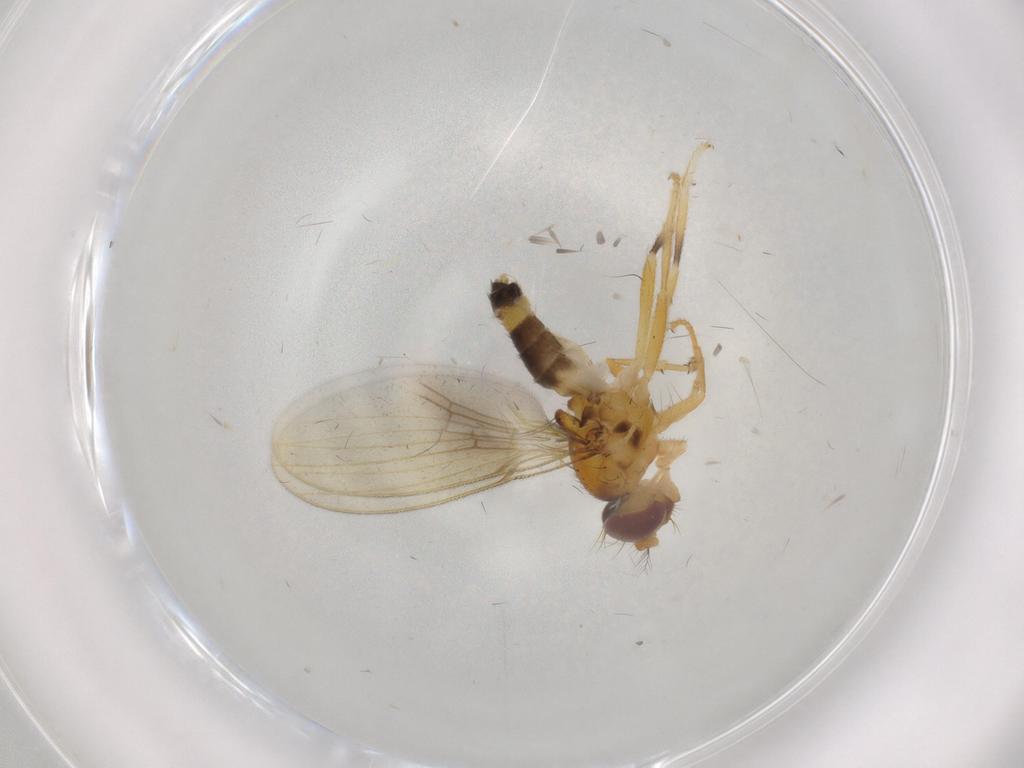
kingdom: Animalia
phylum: Arthropoda
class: Insecta
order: Diptera
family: Periscelididae
